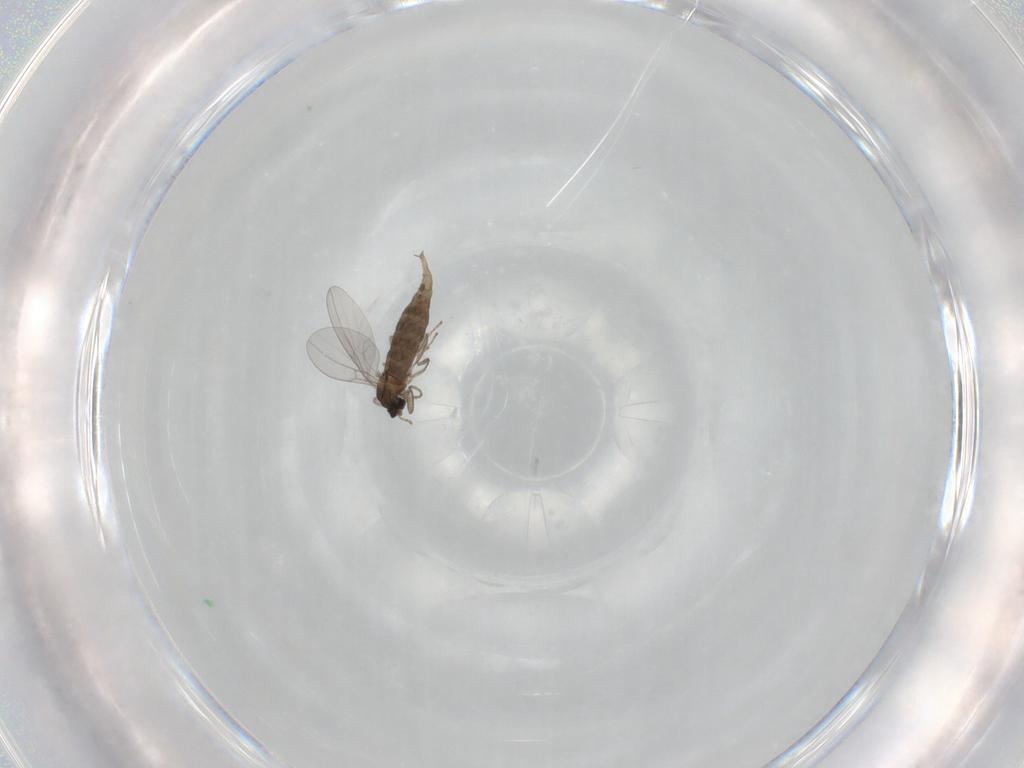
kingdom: Animalia
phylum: Arthropoda
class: Insecta
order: Diptera
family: Cecidomyiidae
